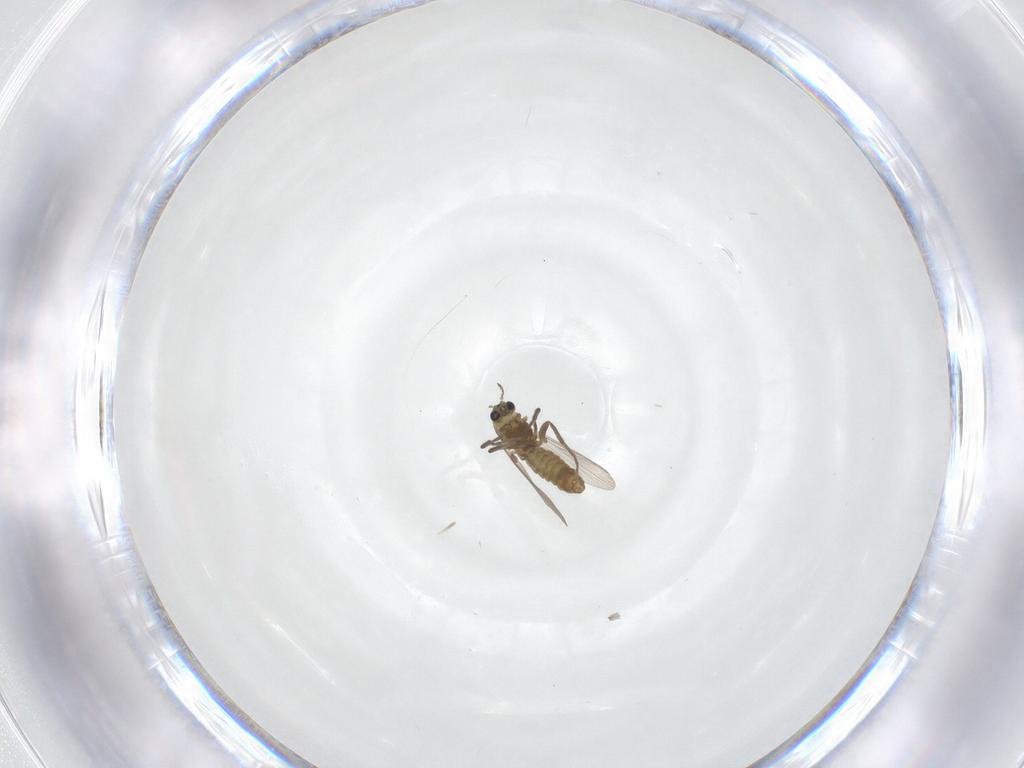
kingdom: Animalia
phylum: Arthropoda
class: Insecta
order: Diptera
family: Chironomidae
